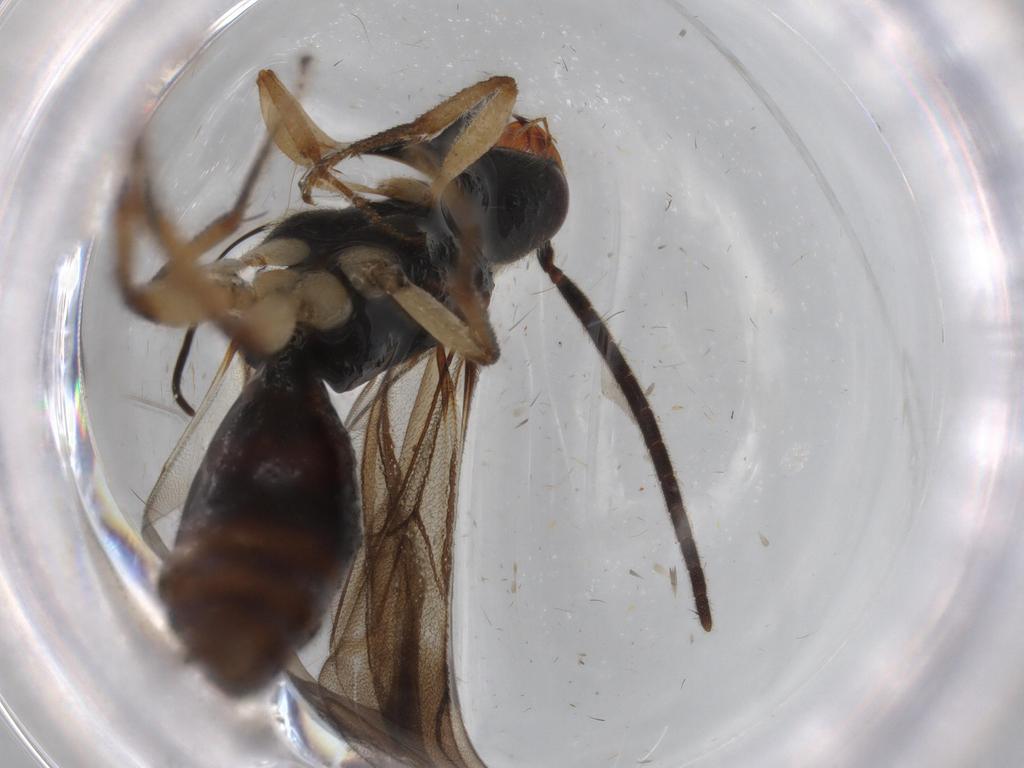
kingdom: Animalia
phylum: Arthropoda
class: Insecta
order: Hymenoptera
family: Bethylidae
